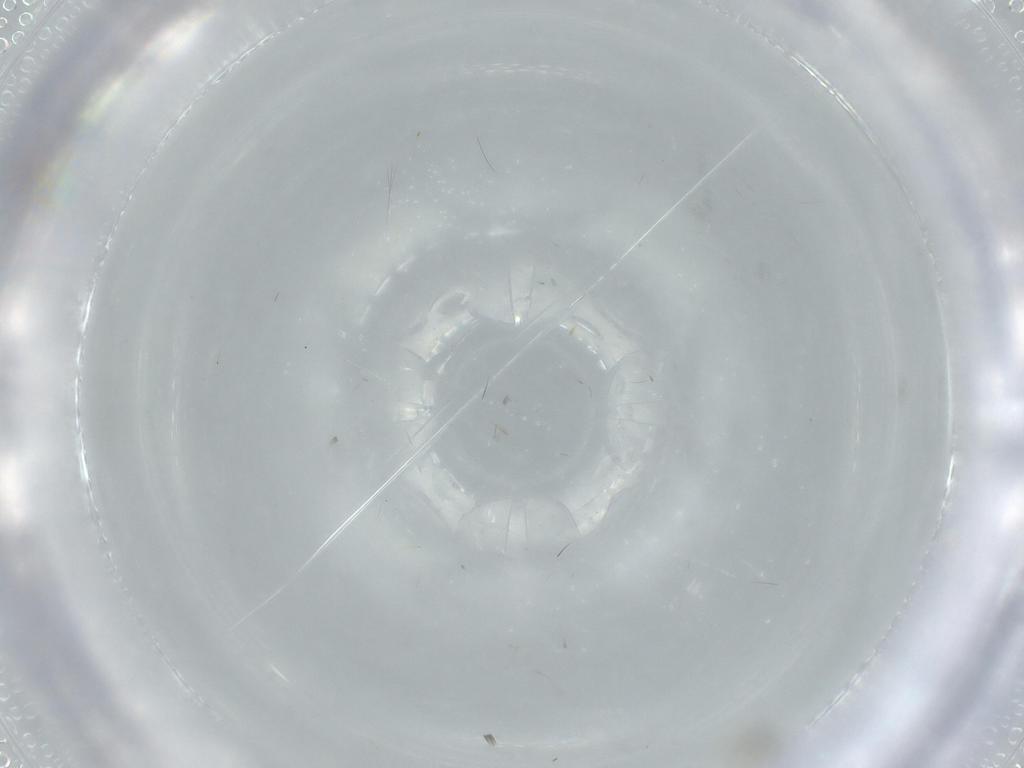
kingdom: Animalia
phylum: Arthropoda
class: Insecta
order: Diptera
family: Phoridae
